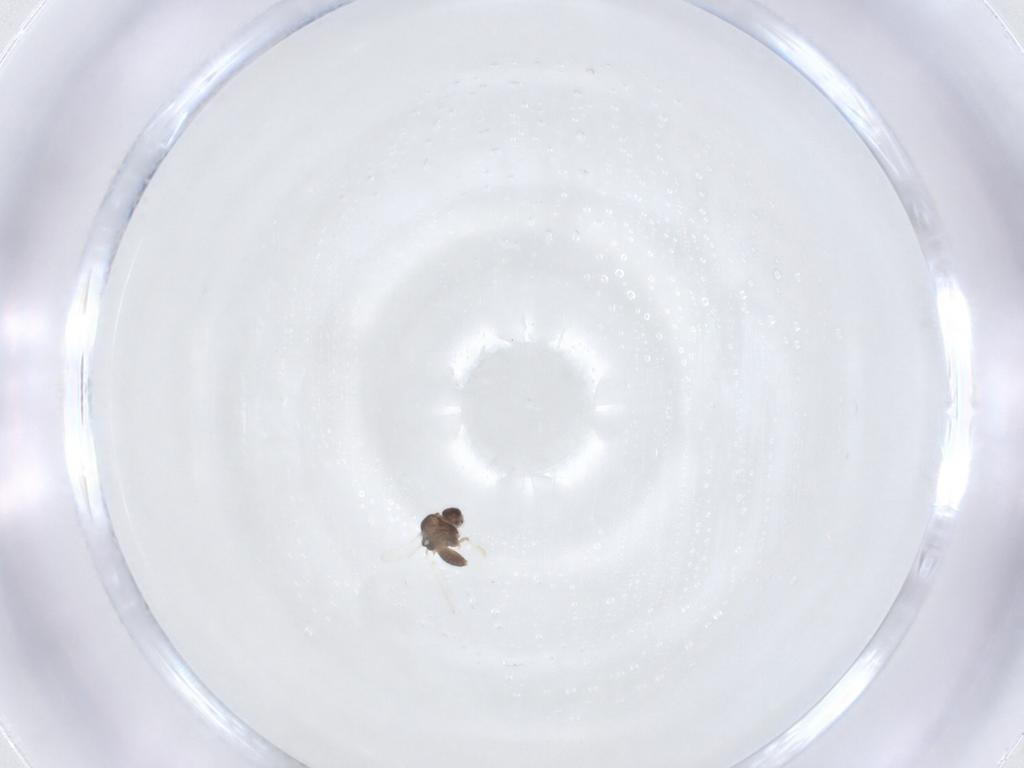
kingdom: Animalia
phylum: Arthropoda
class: Insecta
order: Diptera
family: Chironomidae
